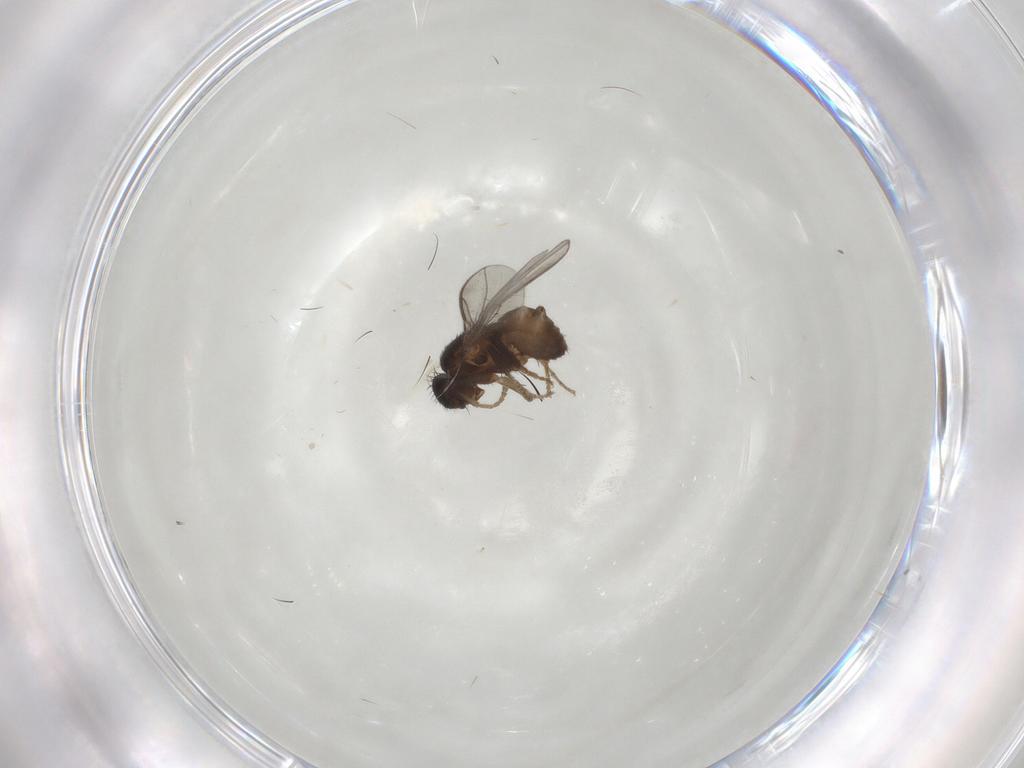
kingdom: Animalia
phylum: Arthropoda
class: Insecta
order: Diptera
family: Sphaeroceridae
